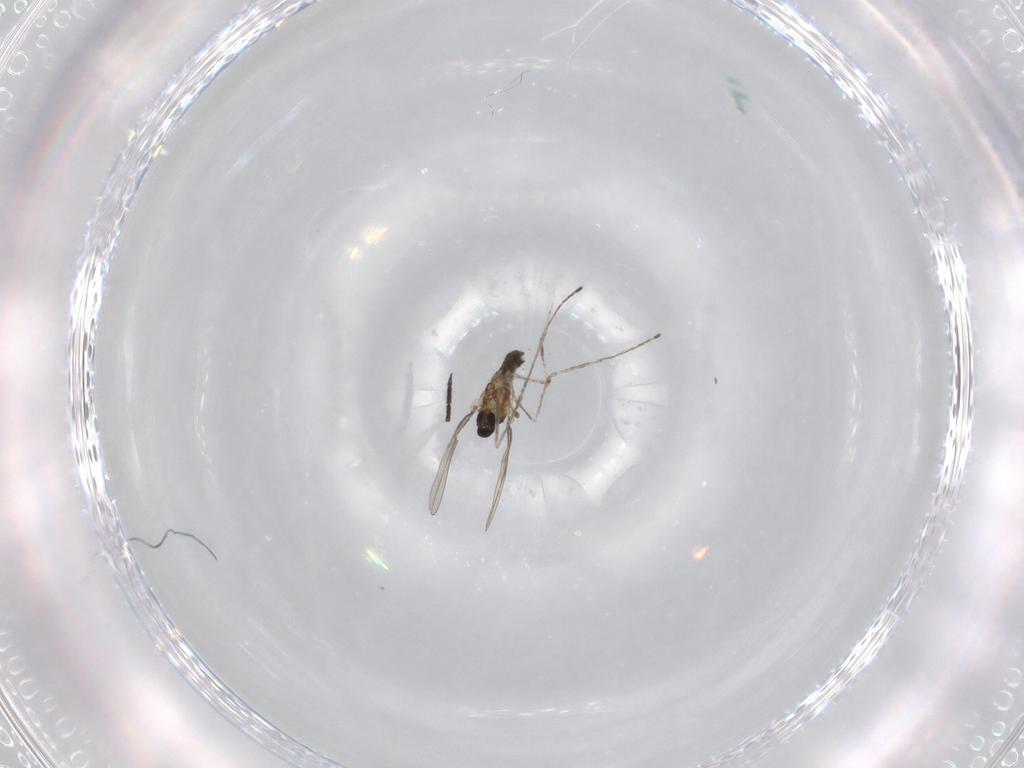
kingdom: Animalia
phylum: Arthropoda
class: Insecta
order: Diptera
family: Cecidomyiidae
